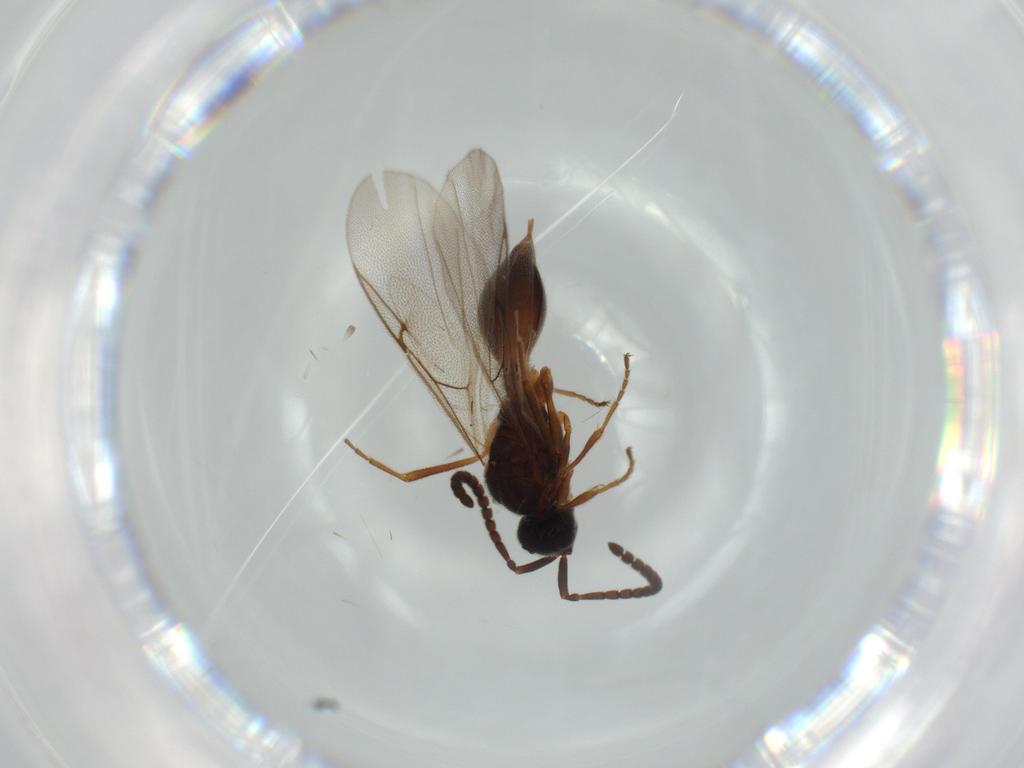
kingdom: Animalia
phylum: Arthropoda
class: Insecta
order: Hymenoptera
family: Diapriidae
